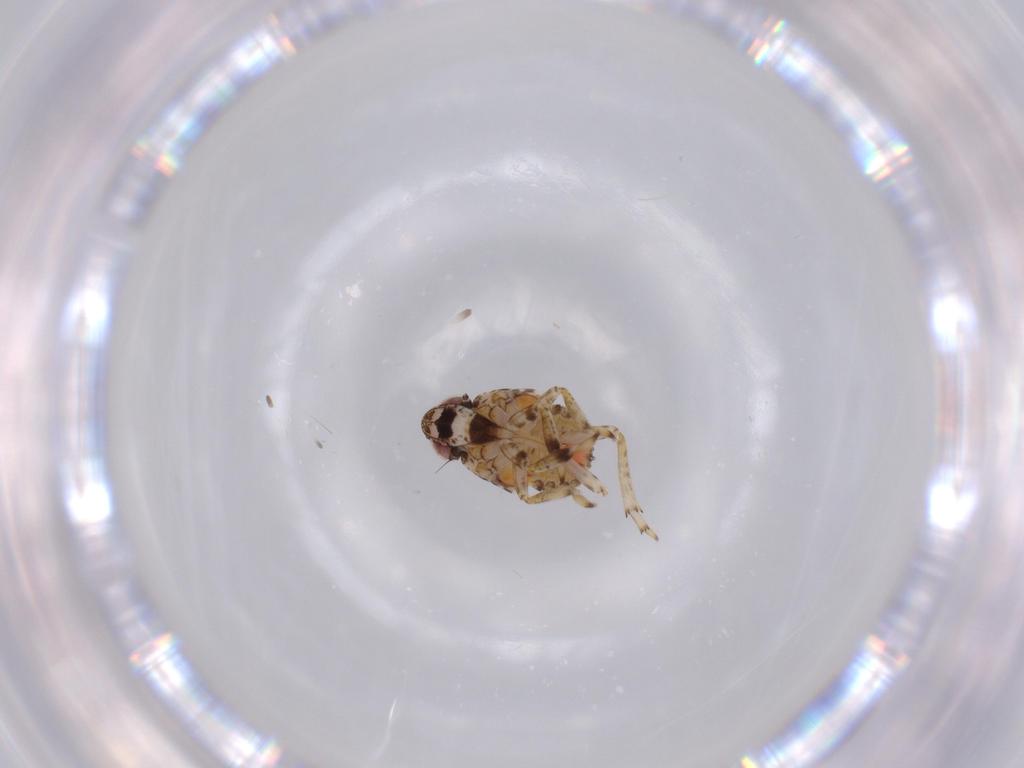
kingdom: Animalia
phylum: Arthropoda
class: Insecta
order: Hemiptera
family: Issidae
